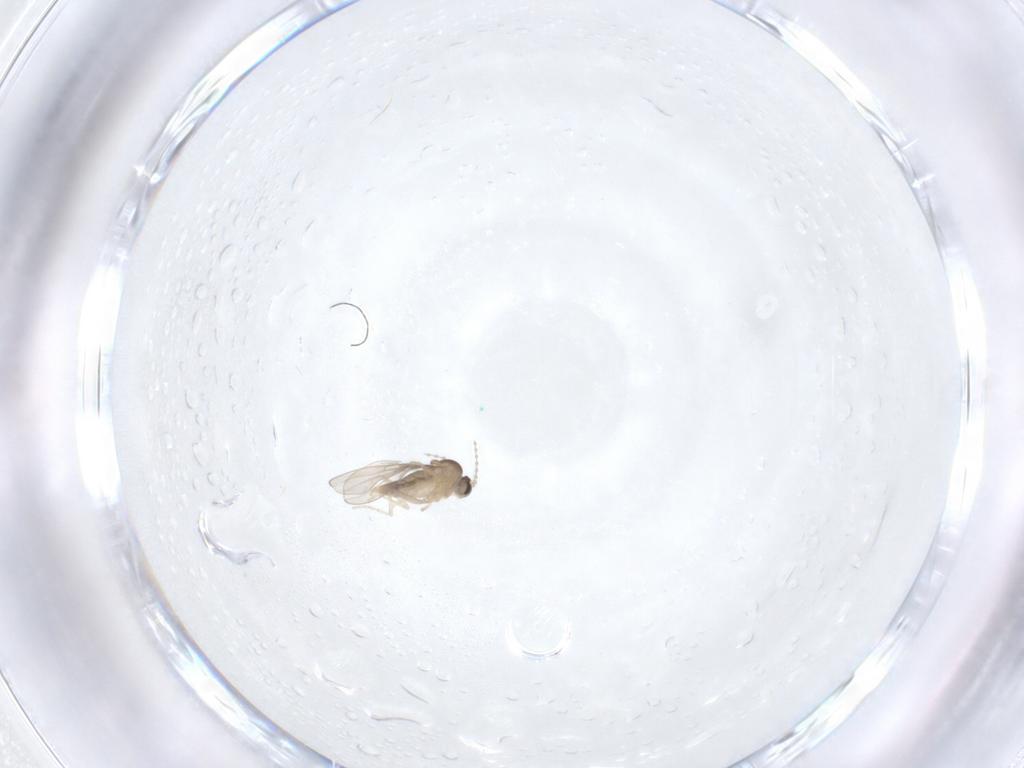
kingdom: Animalia
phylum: Arthropoda
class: Insecta
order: Diptera
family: Cecidomyiidae
